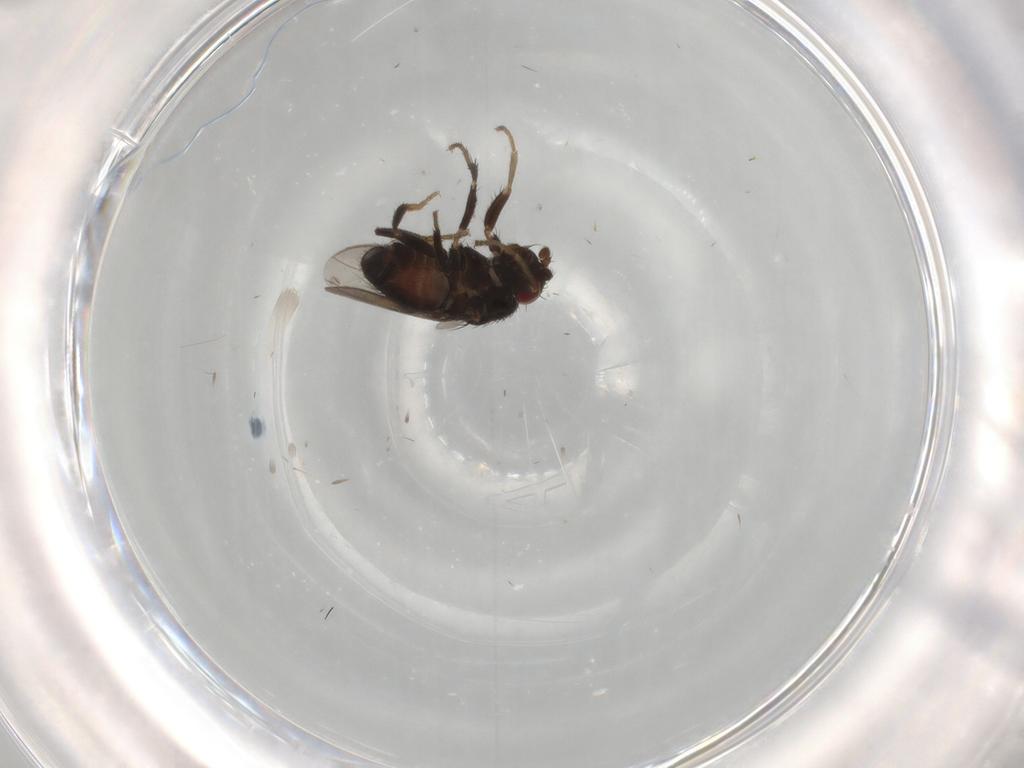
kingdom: Animalia
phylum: Arthropoda
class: Insecta
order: Diptera
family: Sphaeroceridae
